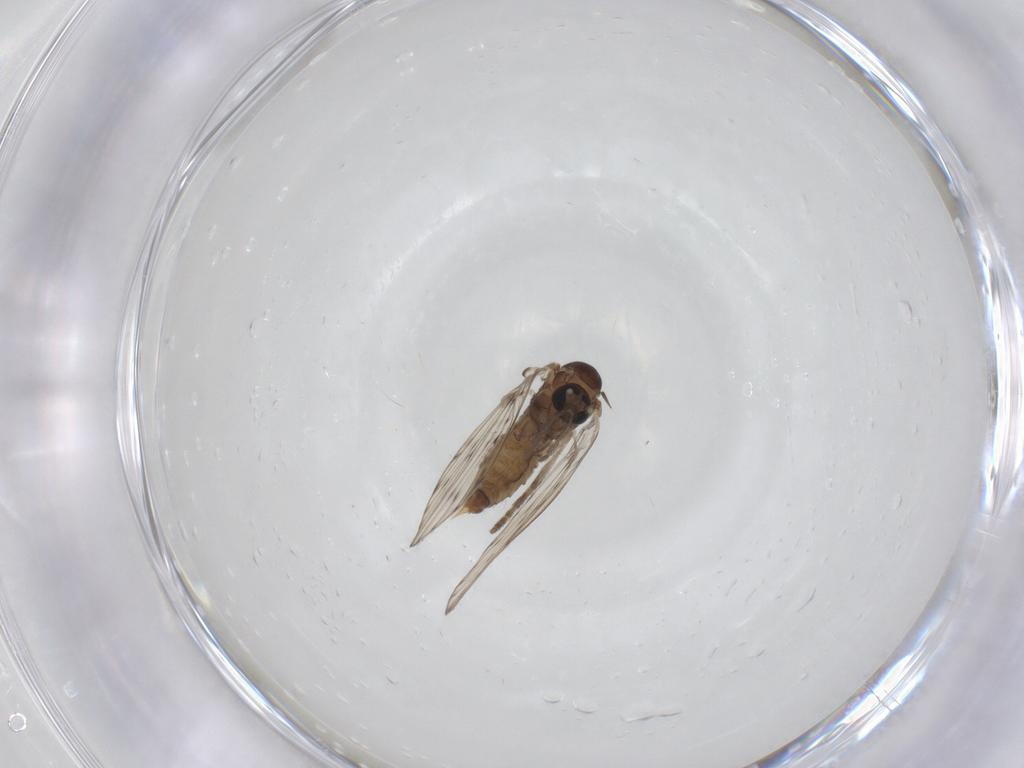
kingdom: Animalia
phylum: Arthropoda
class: Insecta
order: Diptera
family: Psychodidae
